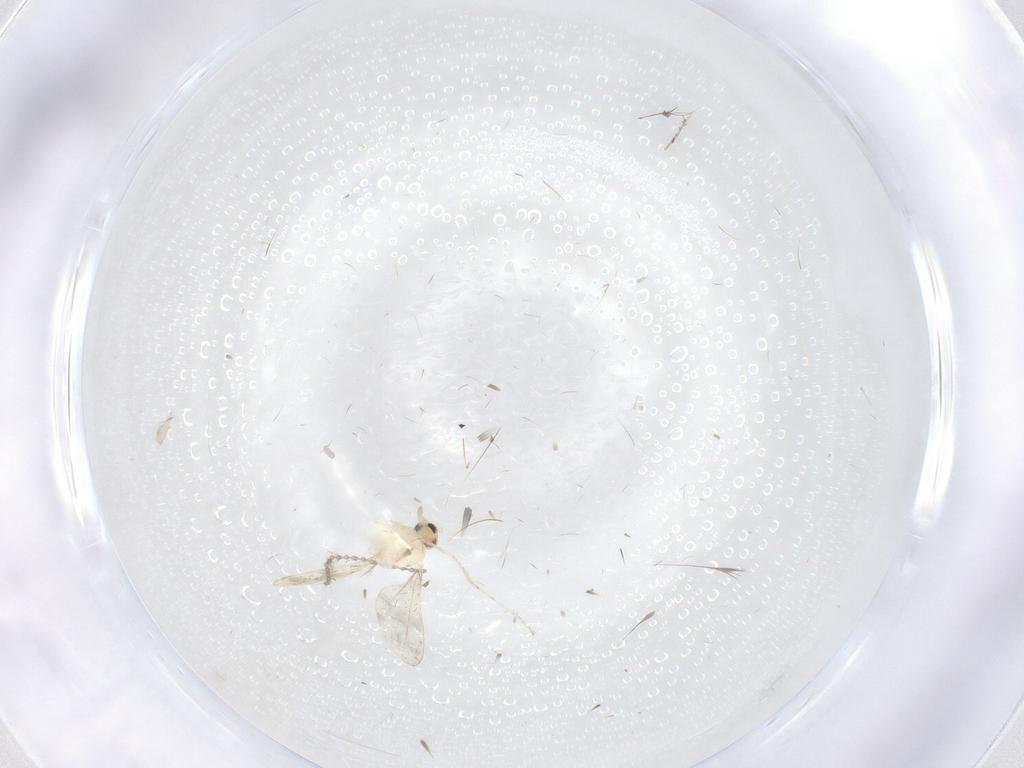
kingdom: Animalia
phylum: Arthropoda
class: Insecta
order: Diptera
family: Cecidomyiidae
